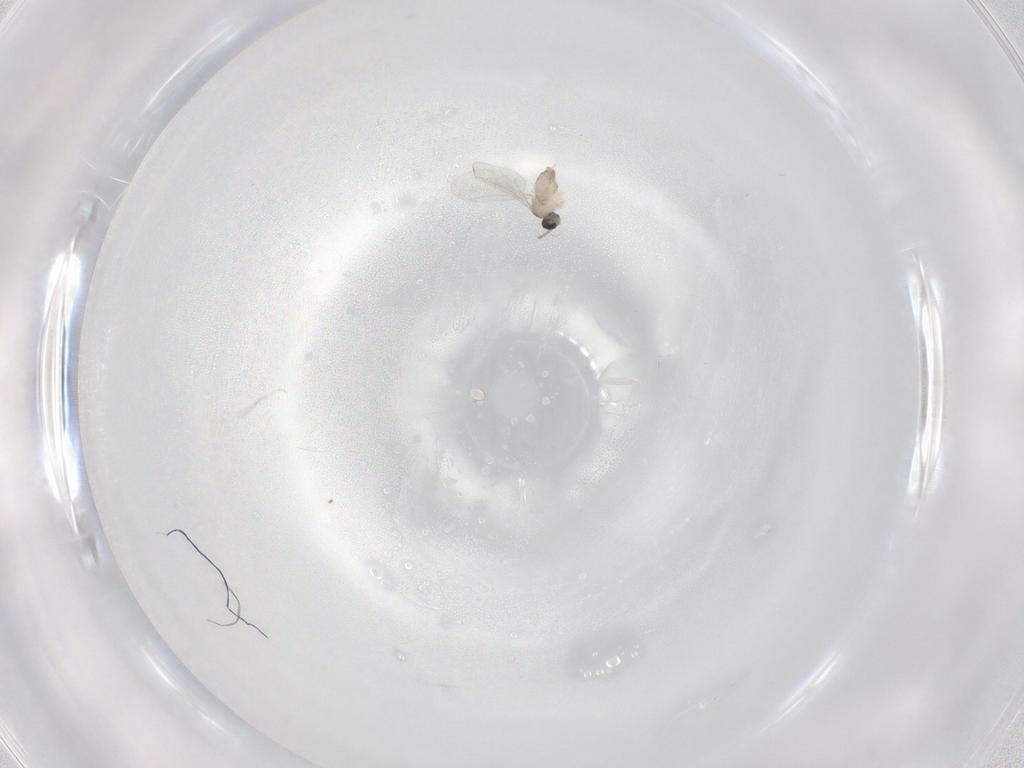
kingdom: Animalia
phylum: Arthropoda
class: Insecta
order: Diptera
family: Cecidomyiidae
